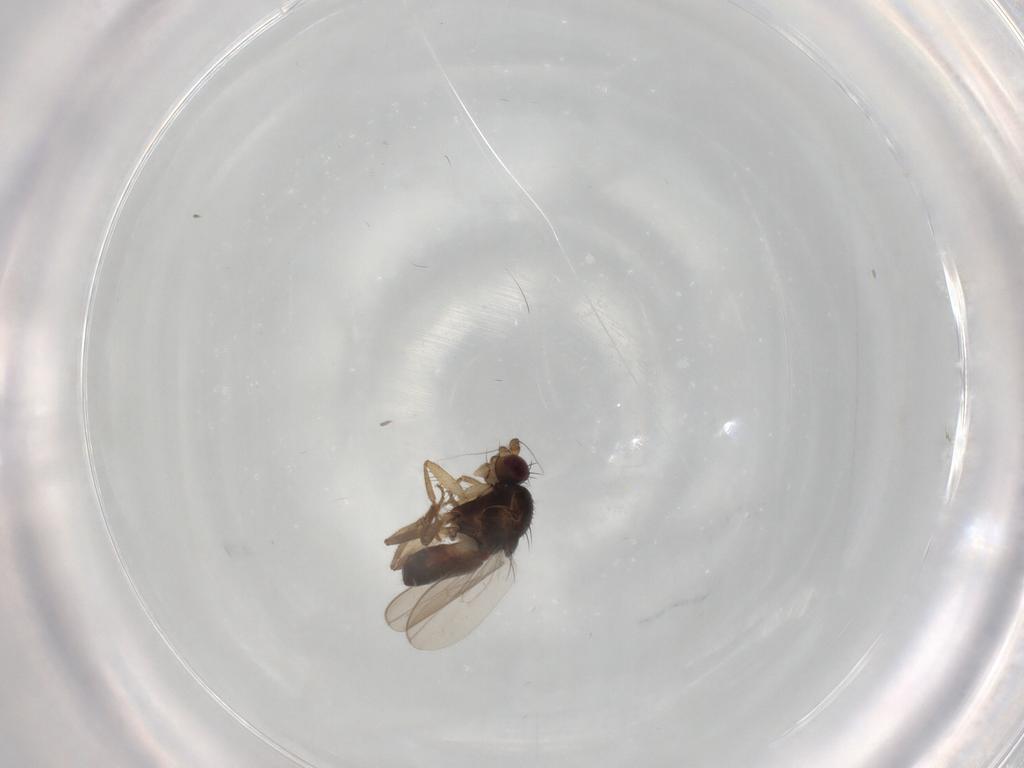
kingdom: Animalia
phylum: Arthropoda
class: Insecta
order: Diptera
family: Sphaeroceridae
